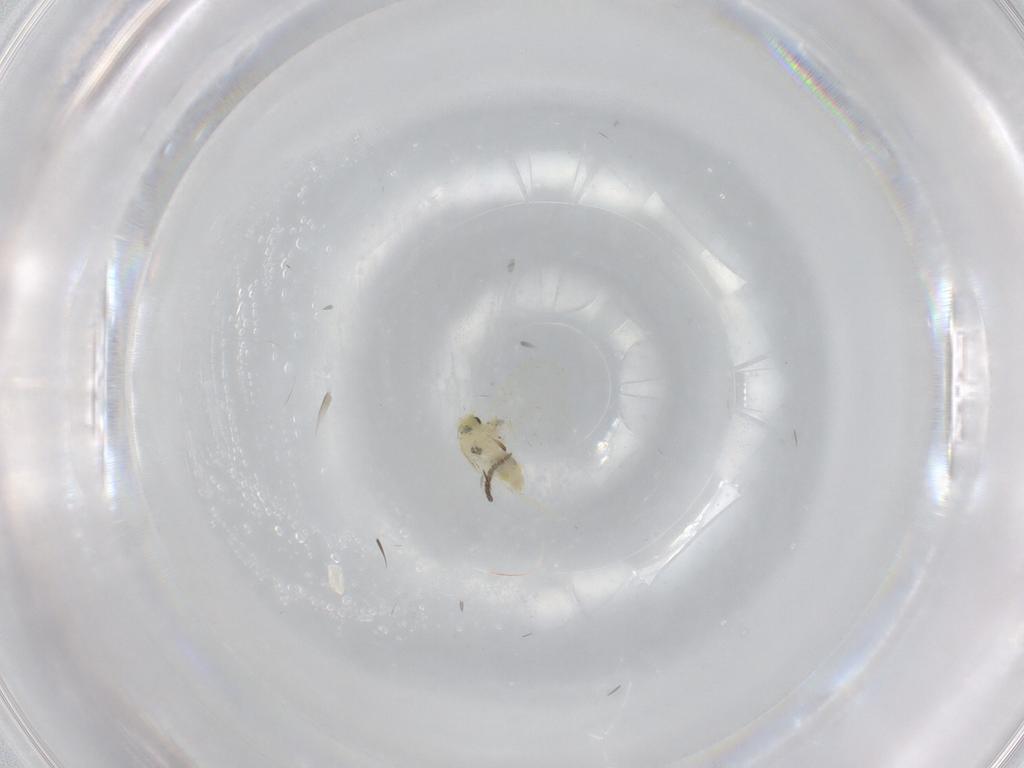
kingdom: Animalia
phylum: Arthropoda
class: Insecta
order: Hemiptera
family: Aleyrodidae
